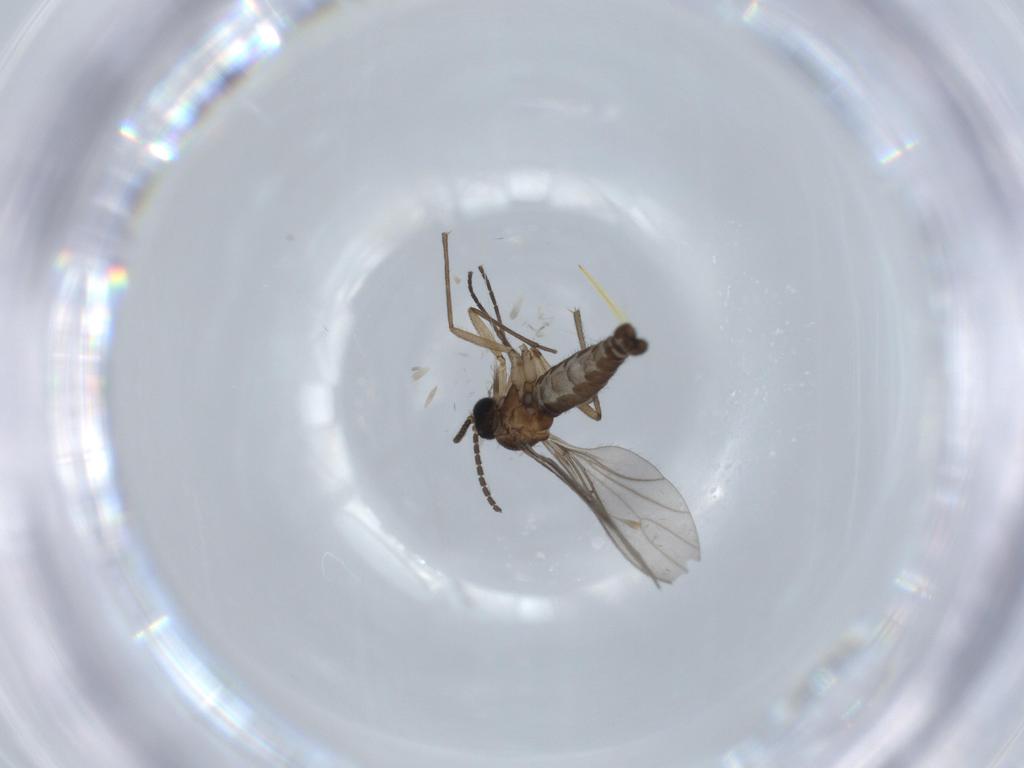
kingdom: Animalia
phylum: Arthropoda
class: Insecta
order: Diptera
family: Sciaridae
